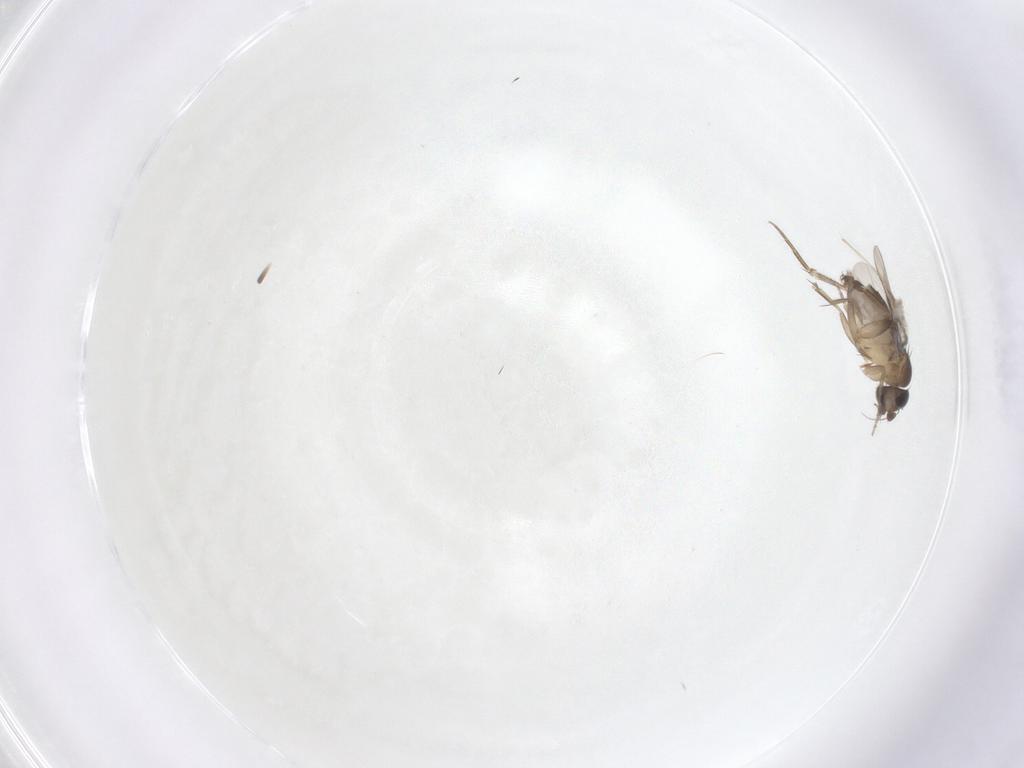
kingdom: Animalia
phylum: Arthropoda
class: Insecta
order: Diptera
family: Phoridae
